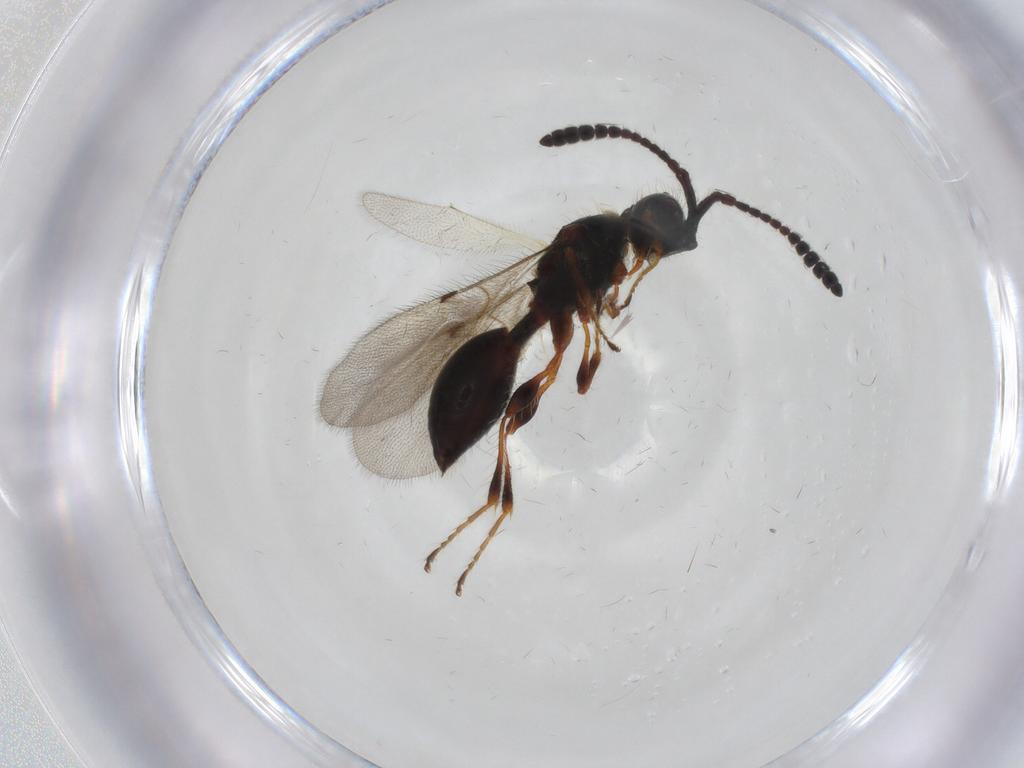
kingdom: Animalia
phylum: Arthropoda
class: Insecta
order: Hymenoptera
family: Diapriidae
